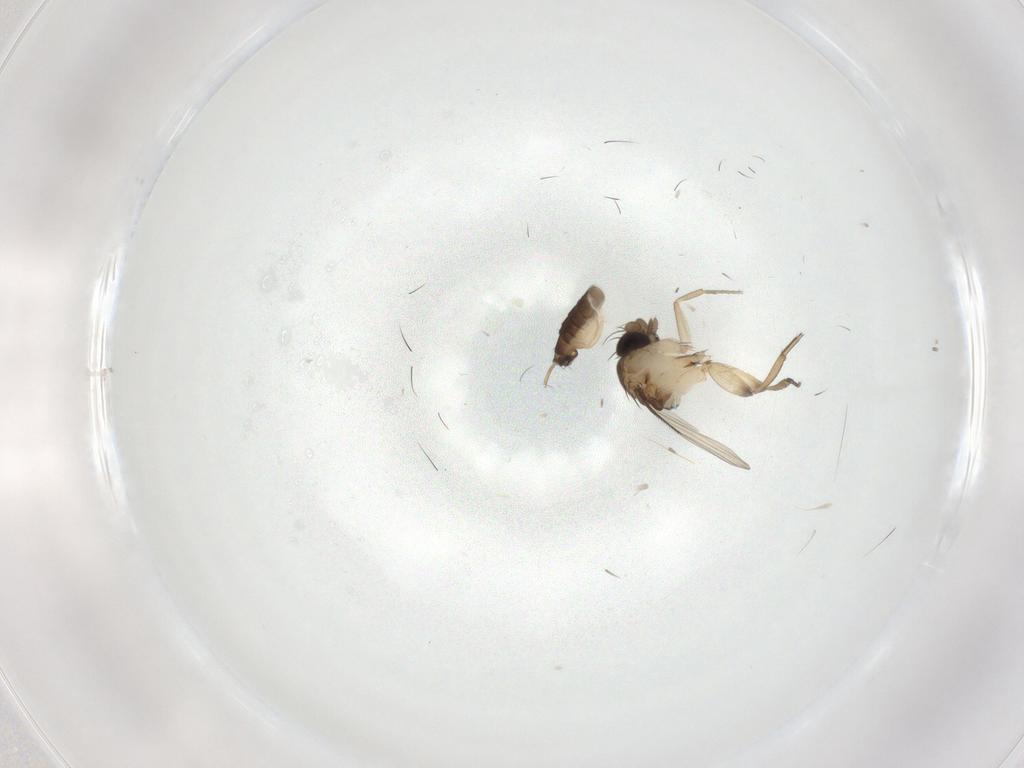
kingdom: Animalia
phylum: Arthropoda
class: Insecta
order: Diptera
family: Phoridae
